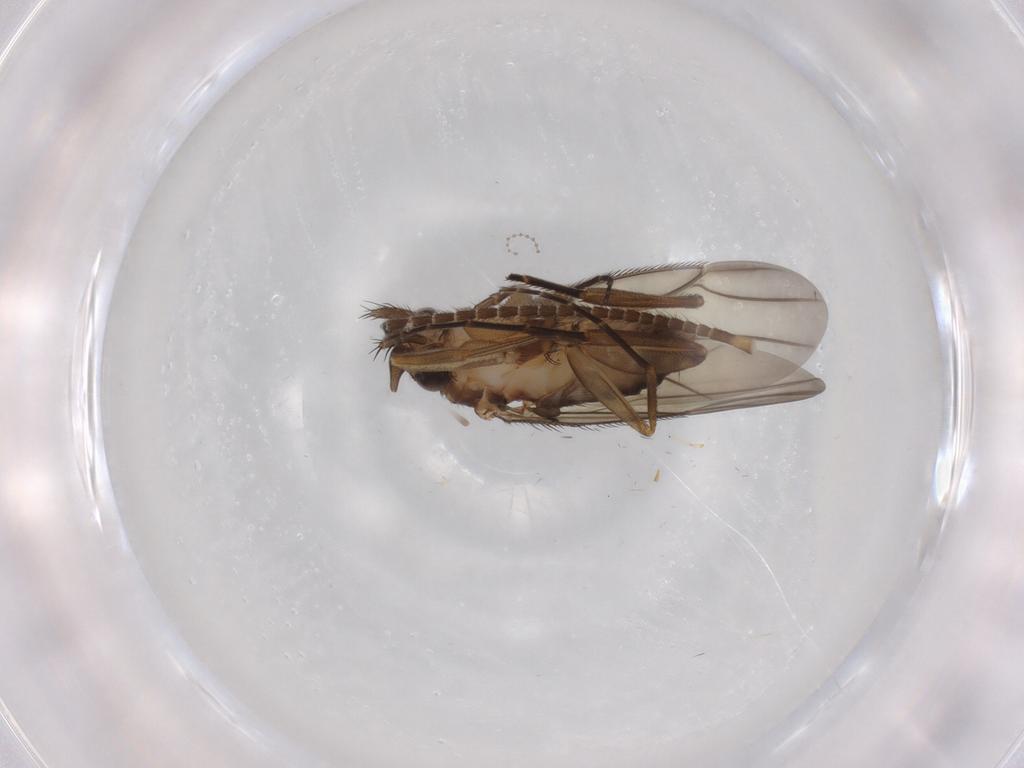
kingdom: Animalia
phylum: Arthropoda
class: Insecta
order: Diptera
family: Phoridae
